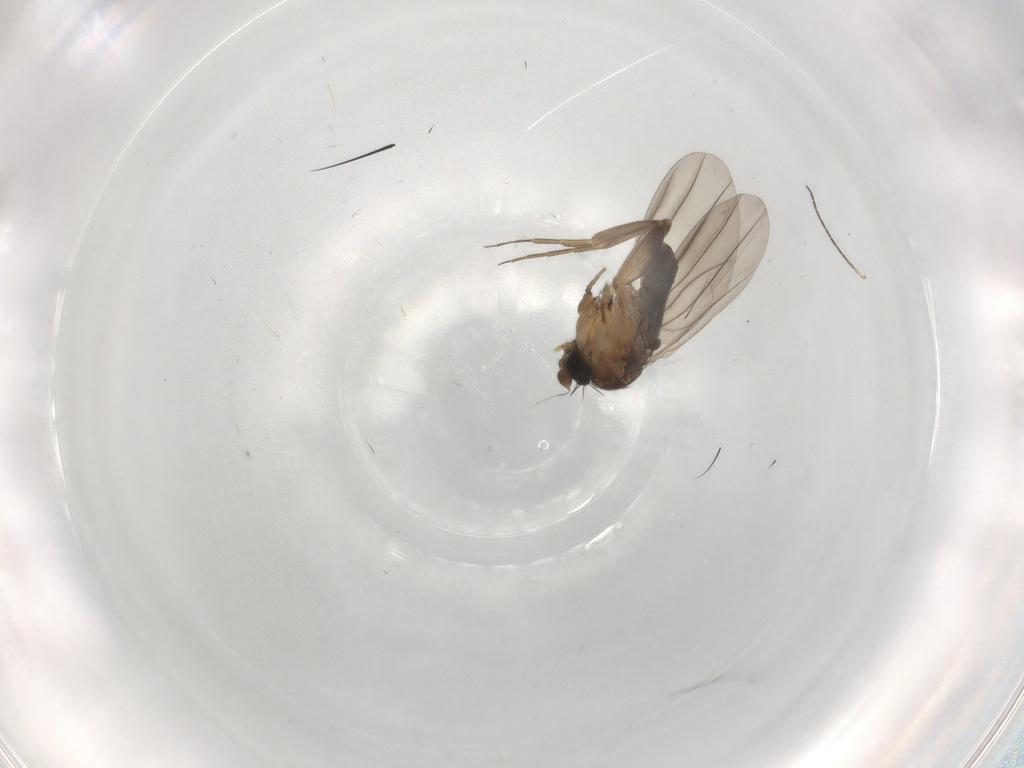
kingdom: Animalia
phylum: Arthropoda
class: Insecta
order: Diptera
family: Phoridae
